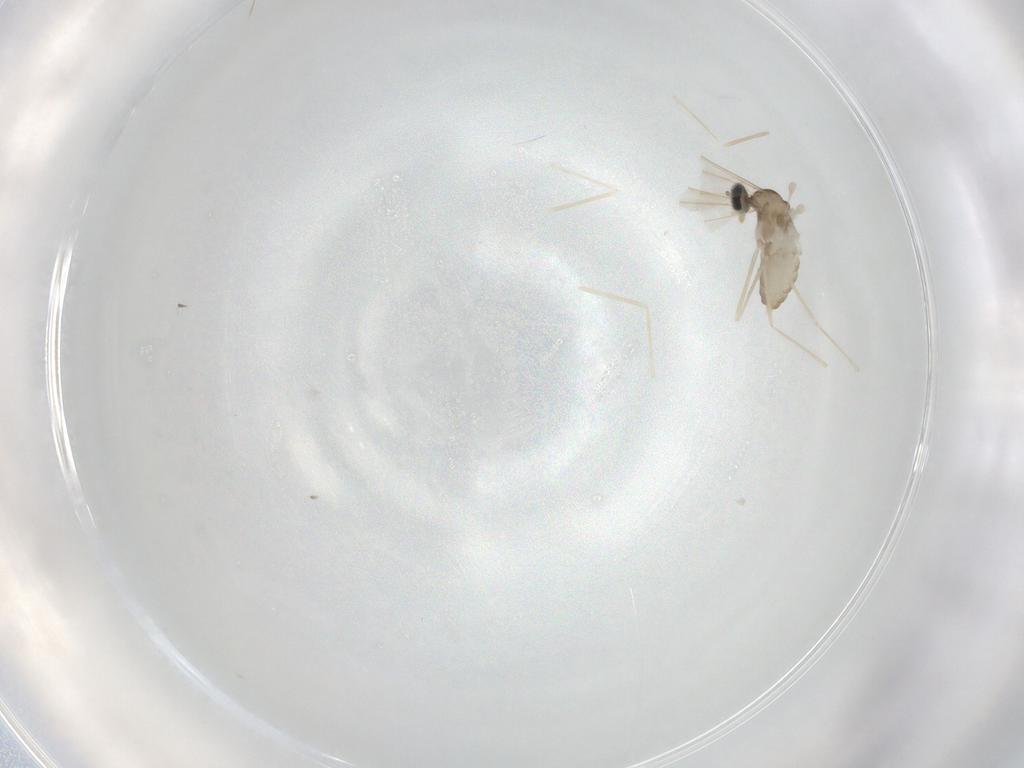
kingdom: Animalia
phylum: Arthropoda
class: Insecta
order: Diptera
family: Cecidomyiidae
